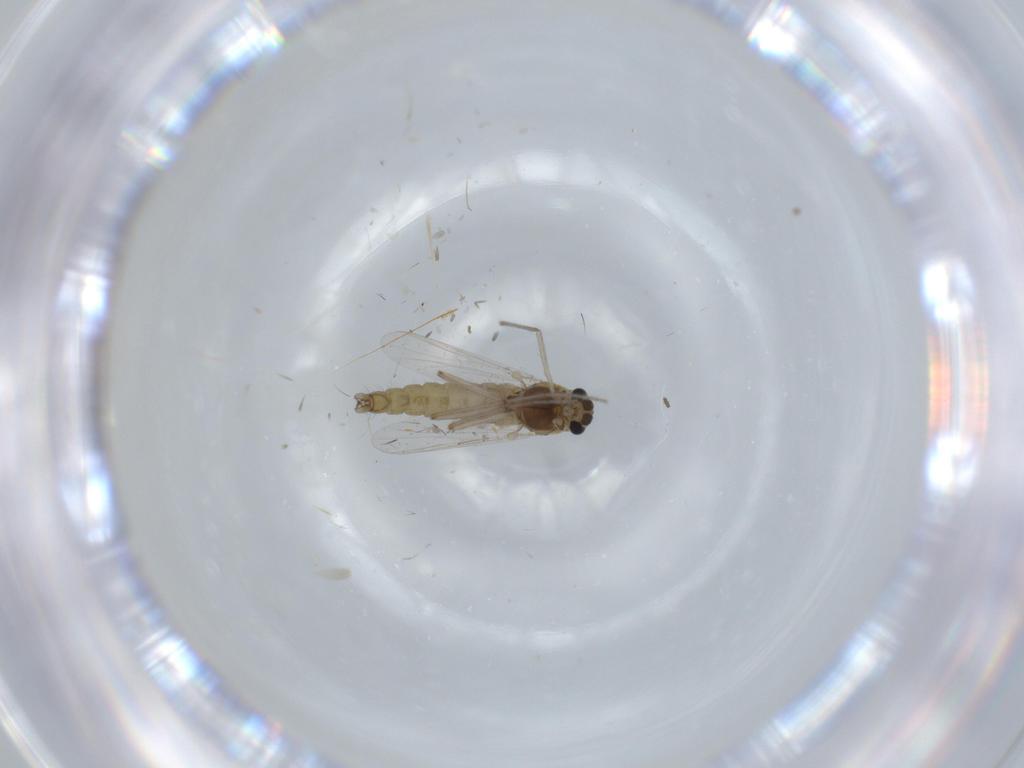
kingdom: Animalia
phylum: Arthropoda
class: Insecta
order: Diptera
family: Chironomidae
